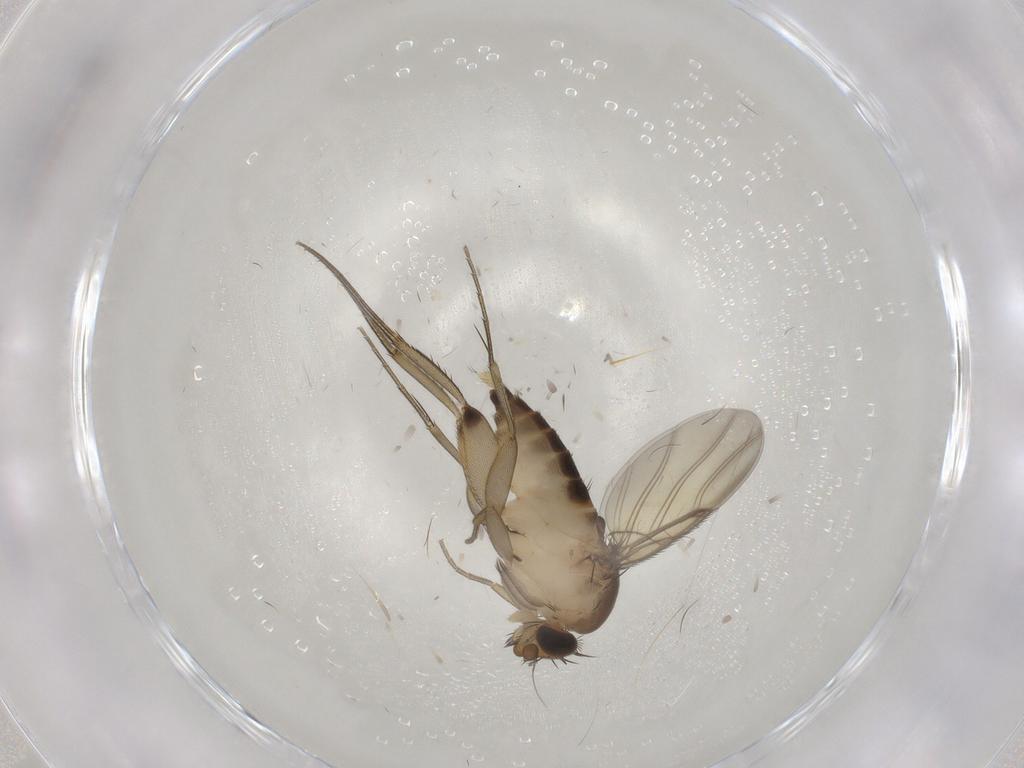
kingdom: Animalia
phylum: Arthropoda
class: Insecta
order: Diptera
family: Phoridae
